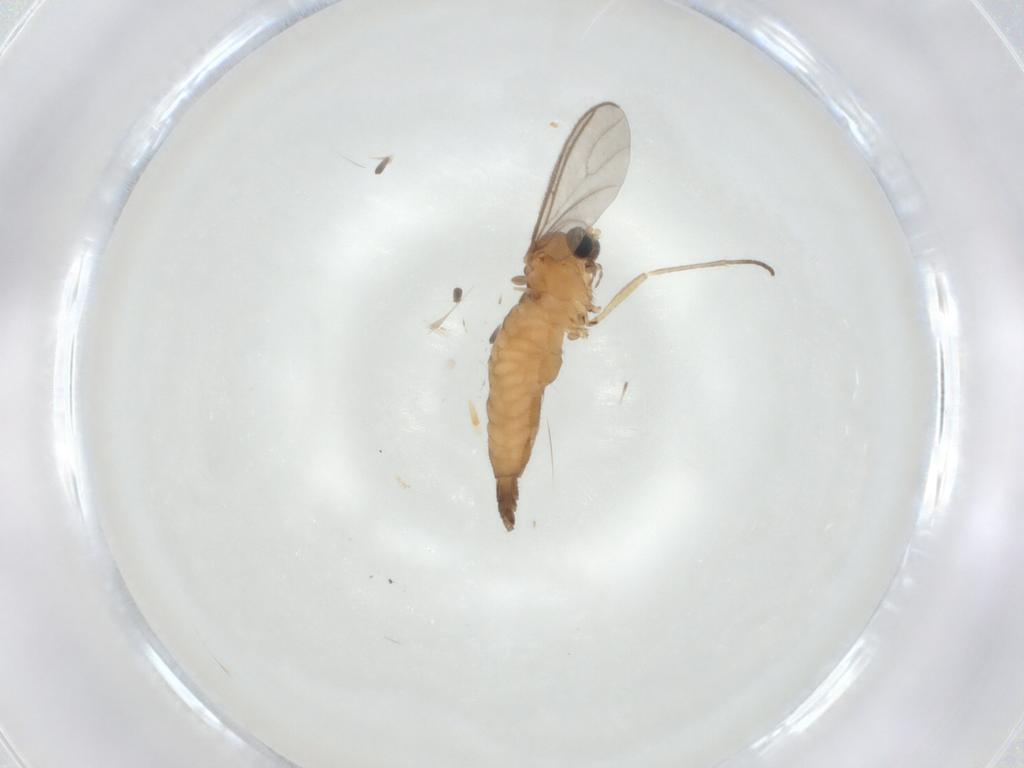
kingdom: Animalia
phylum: Arthropoda
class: Insecta
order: Diptera
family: Sciaridae
